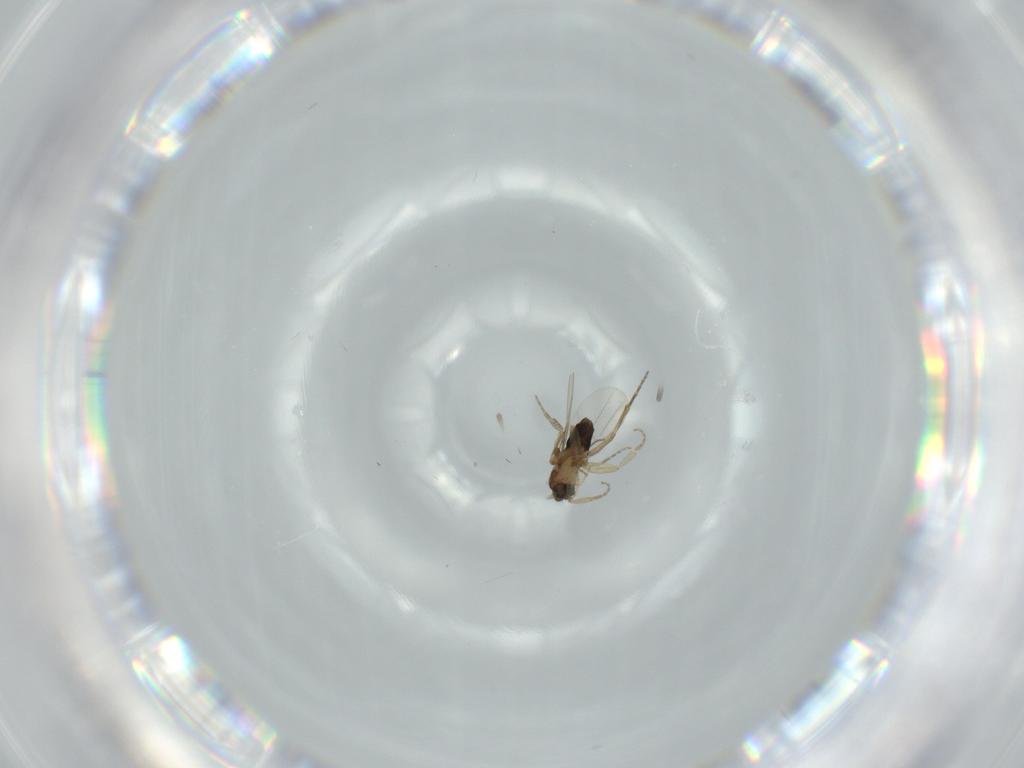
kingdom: Animalia
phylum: Arthropoda
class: Insecta
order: Diptera
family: Phoridae
